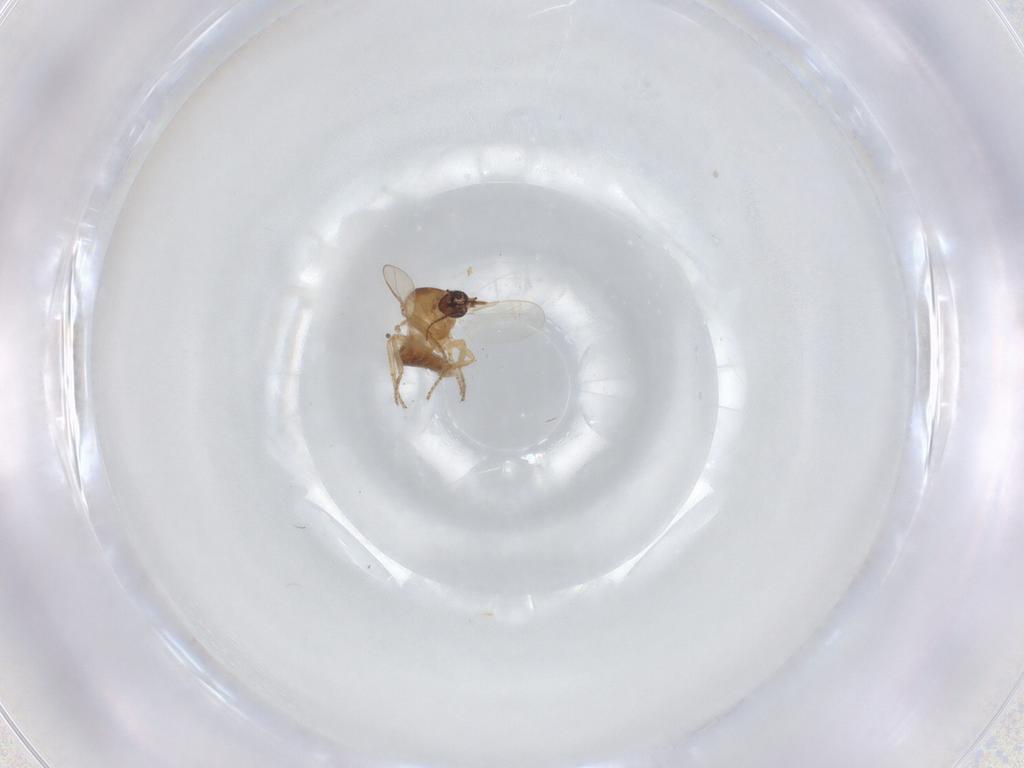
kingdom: Animalia
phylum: Arthropoda
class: Insecta
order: Diptera
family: Ceratopogonidae
